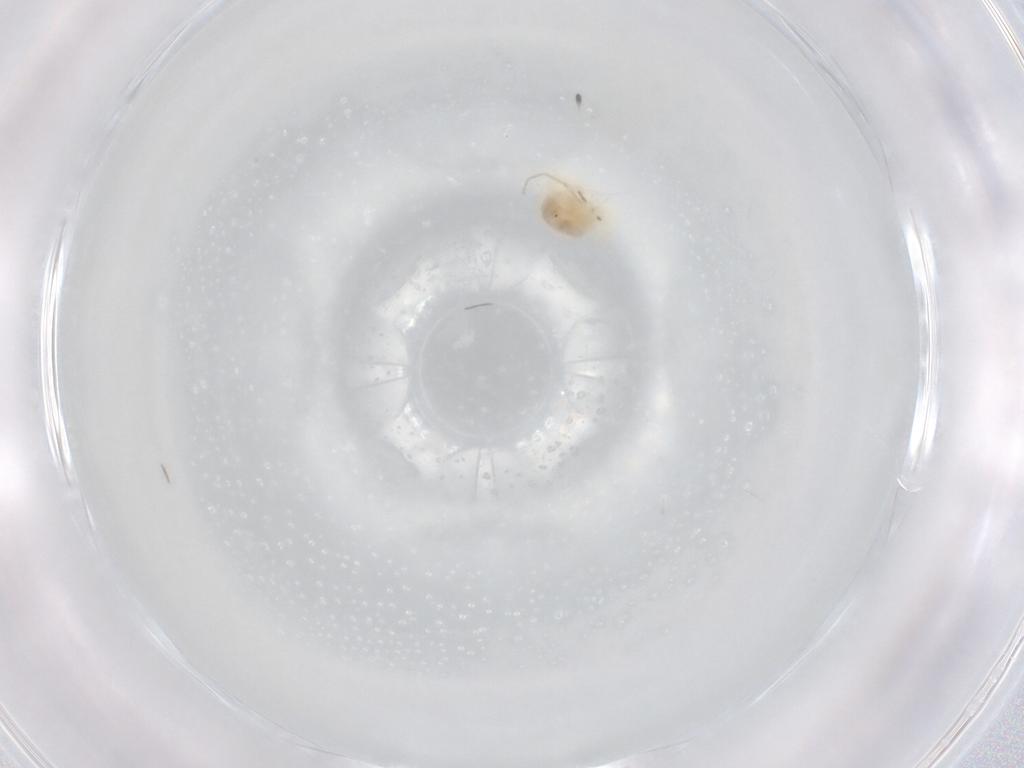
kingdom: Animalia
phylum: Arthropoda
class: Arachnida
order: Trombidiformes
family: Anystidae
